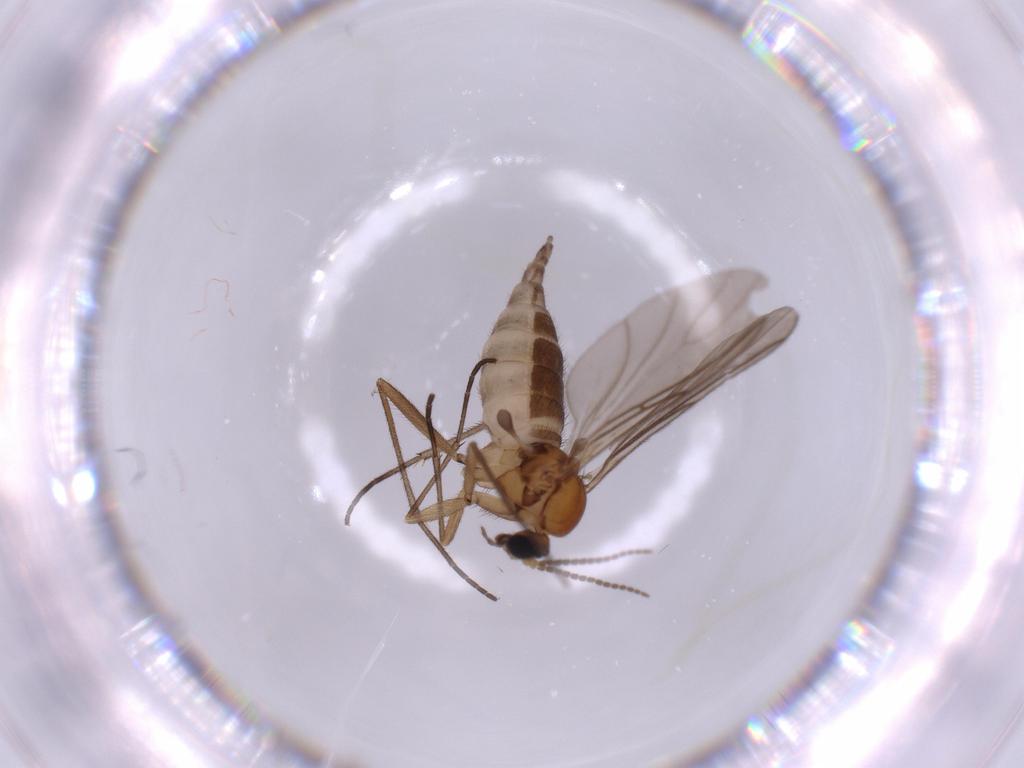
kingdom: Animalia
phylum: Arthropoda
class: Insecta
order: Diptera
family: Sciaridae
